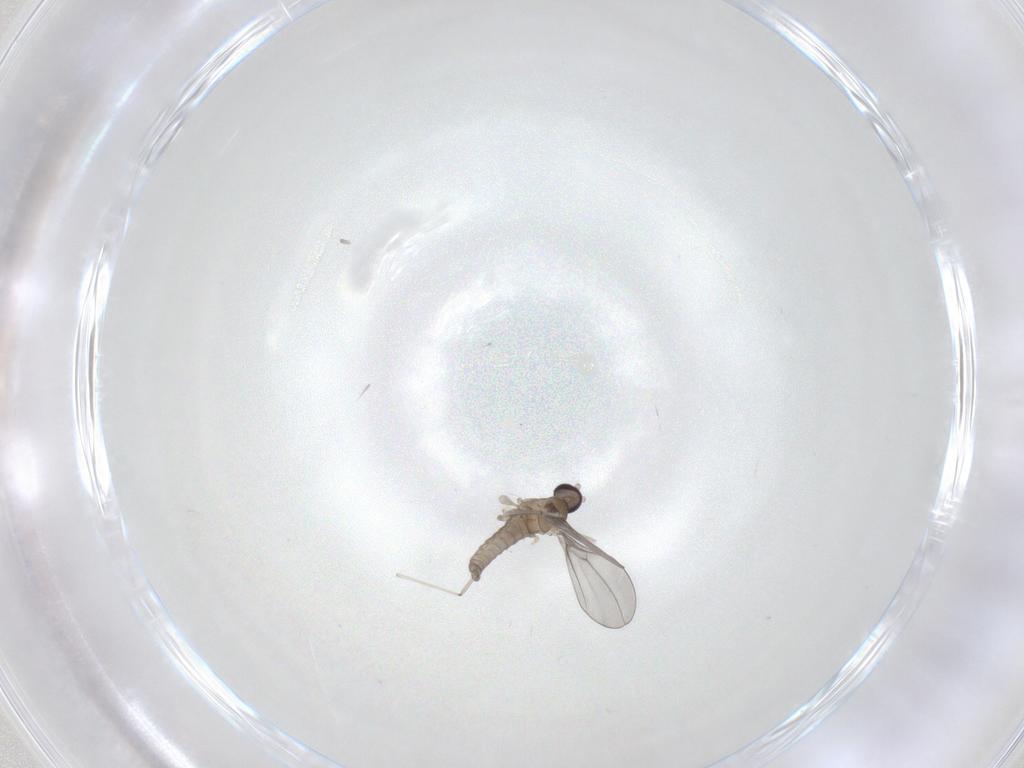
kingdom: Animalia
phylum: Arthropoda
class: Insecta
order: Diptera
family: Cecidomyiidae
